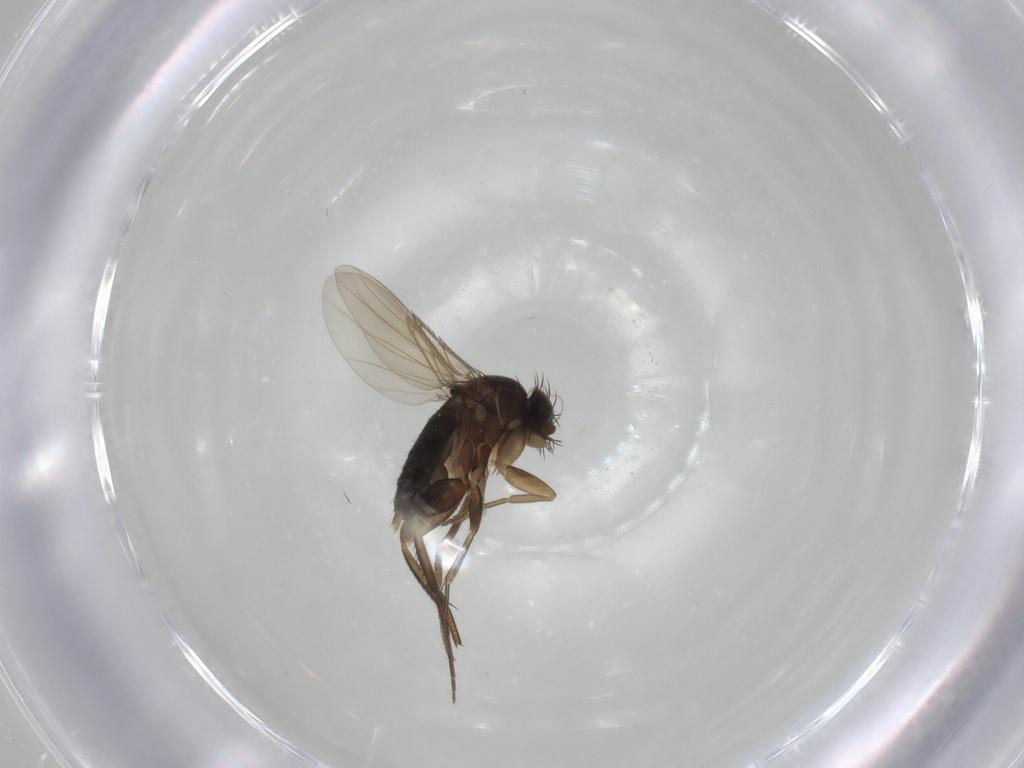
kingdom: Animalia
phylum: Arthropoda
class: Insecta
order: Diptera
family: Phoridae
